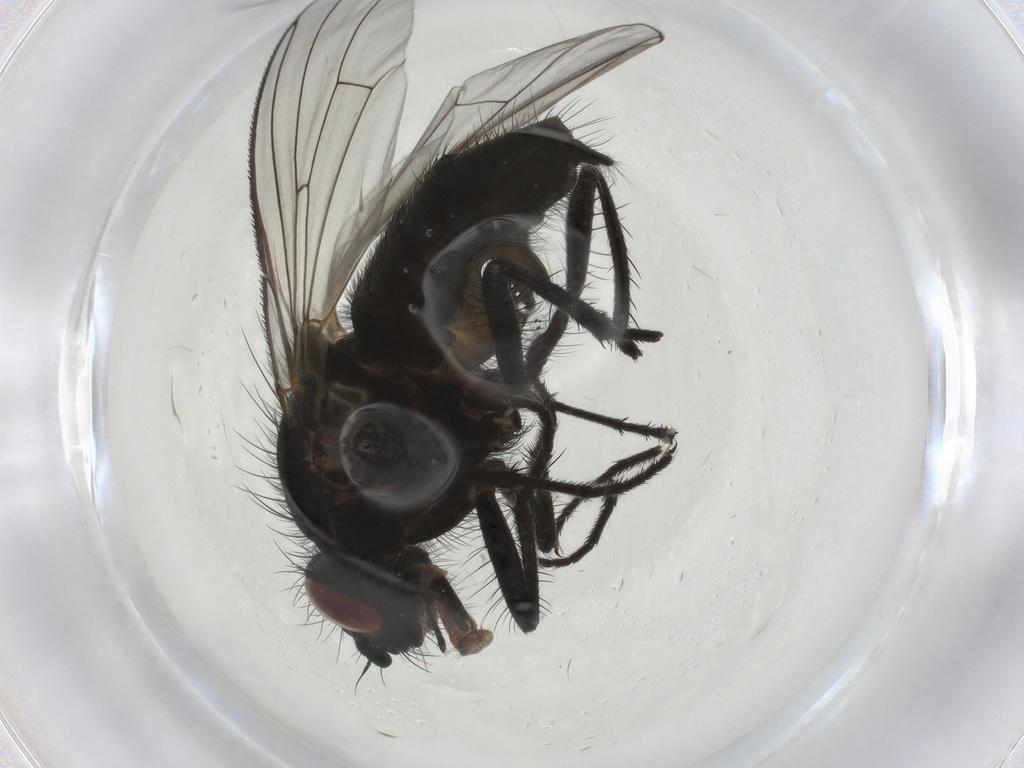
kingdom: Animalia
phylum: Arthropoda
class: Insecta
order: Diptera
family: Muscidae
